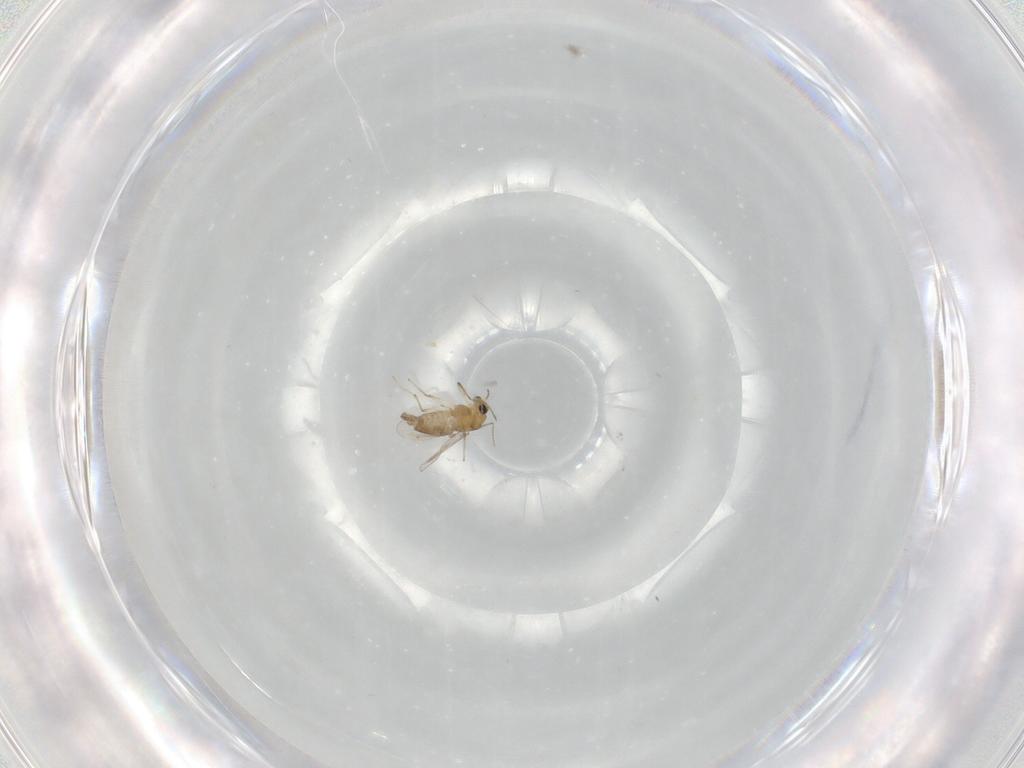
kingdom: Animalia
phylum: Arthropoda
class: Insecta
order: Diptera
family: Chironomidae
